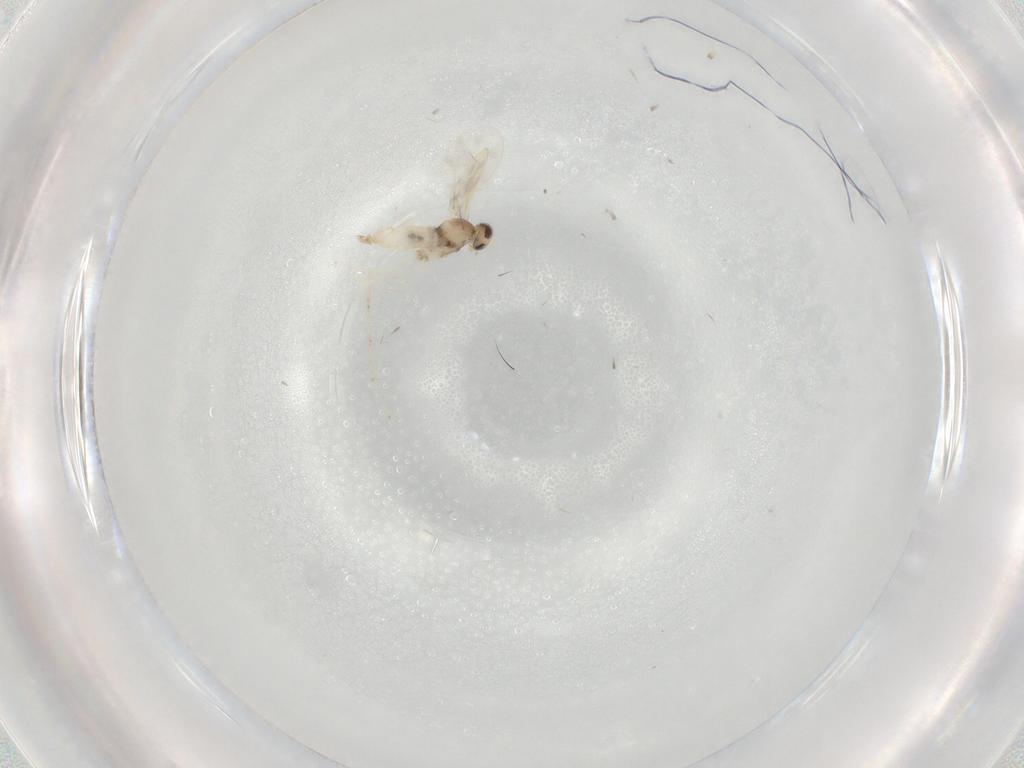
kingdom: Animalia
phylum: Arthropoda
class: Insecta
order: Diptera
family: Cecidomyiidae
